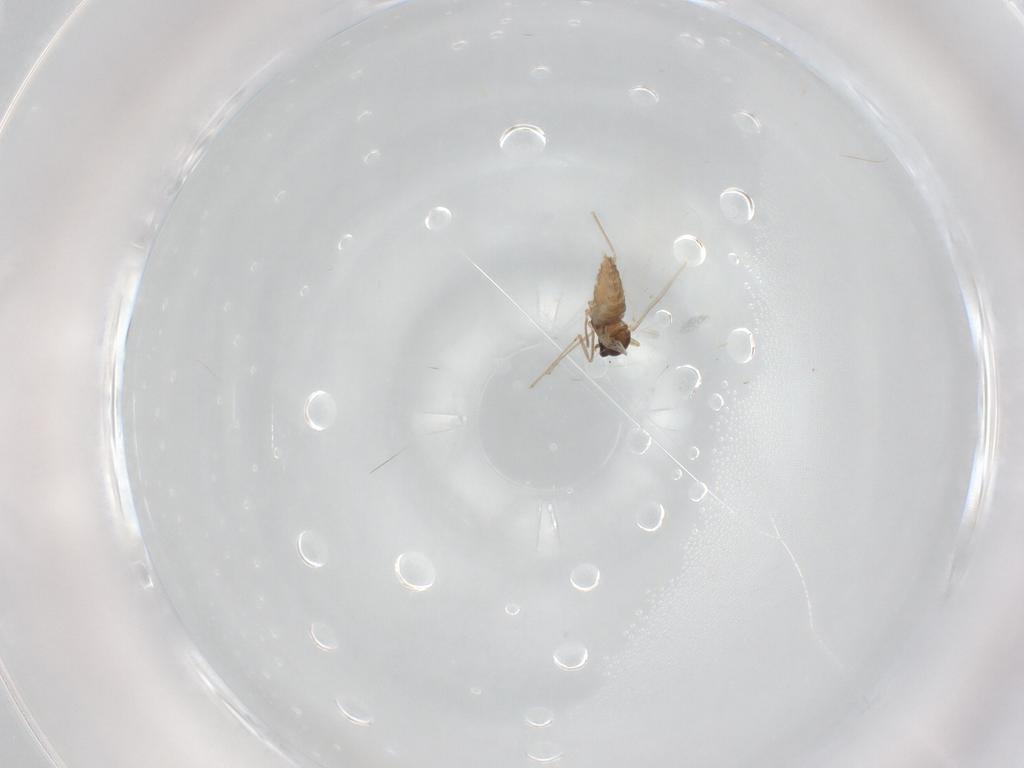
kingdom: Animalia
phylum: Arthropoda
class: Insecta
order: Diptera
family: Cecidomyiidae
